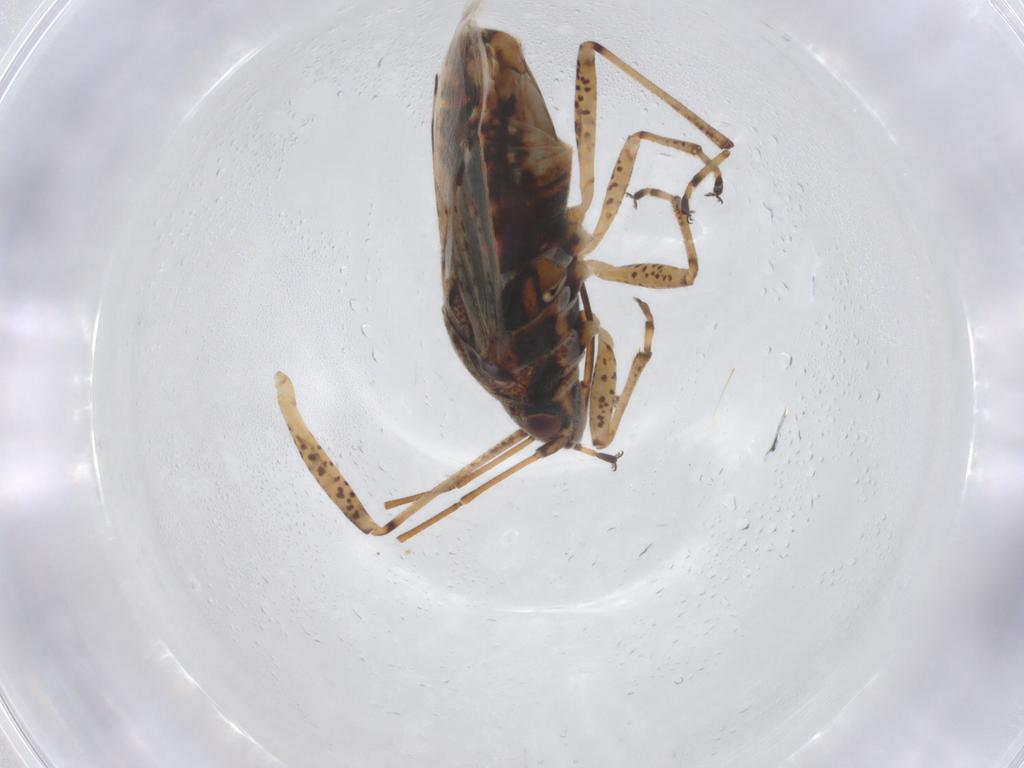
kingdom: Animalia
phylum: Arthropoda
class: Insecta
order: Hemiptera
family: Lygaeidae
